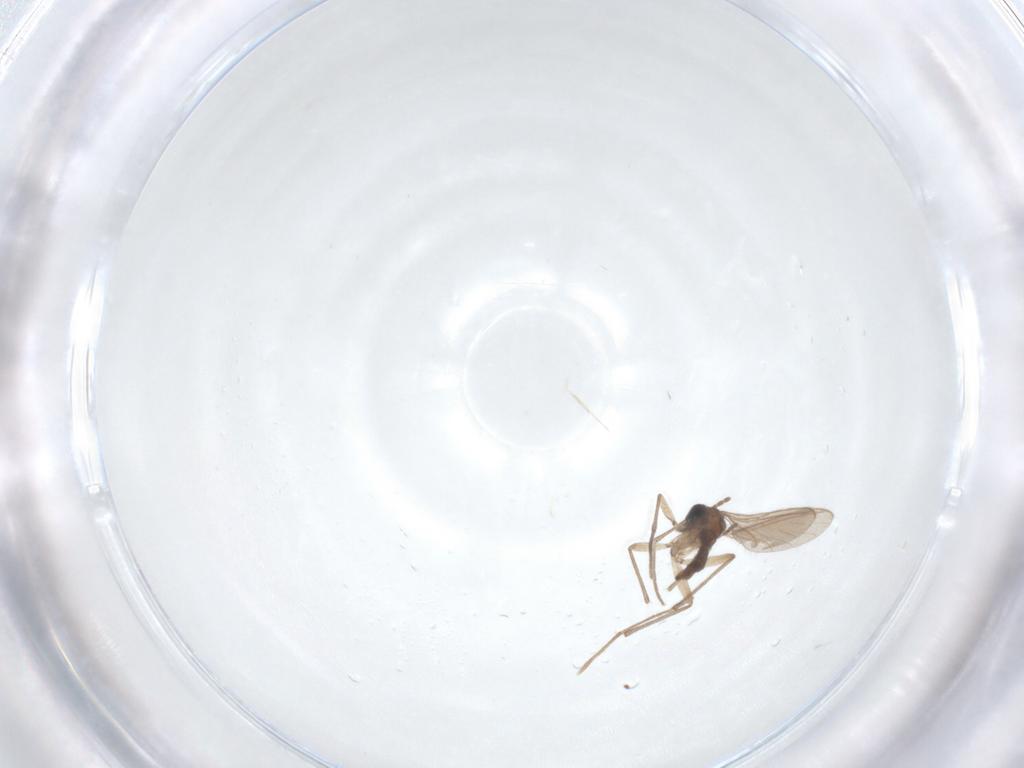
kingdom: Animalia
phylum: Arthropoda
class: Insecta
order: Diptera
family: Sciaridae
